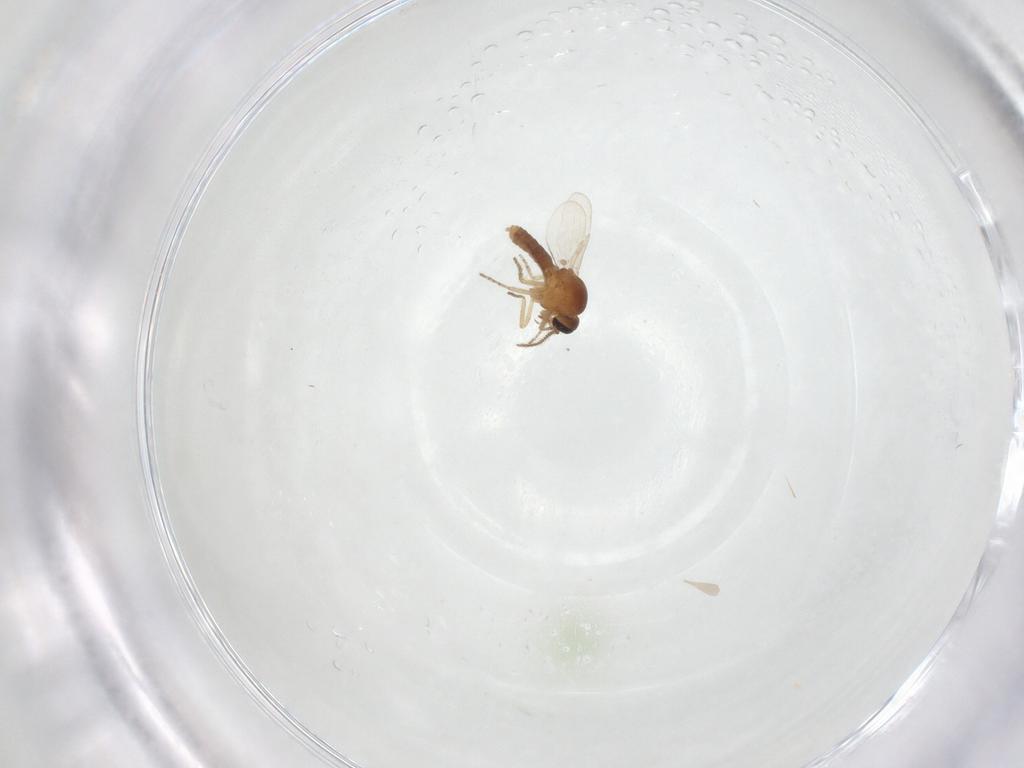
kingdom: Animalia
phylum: Arthropoda
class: Insecta
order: Diptera
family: Ceratopogonidae
